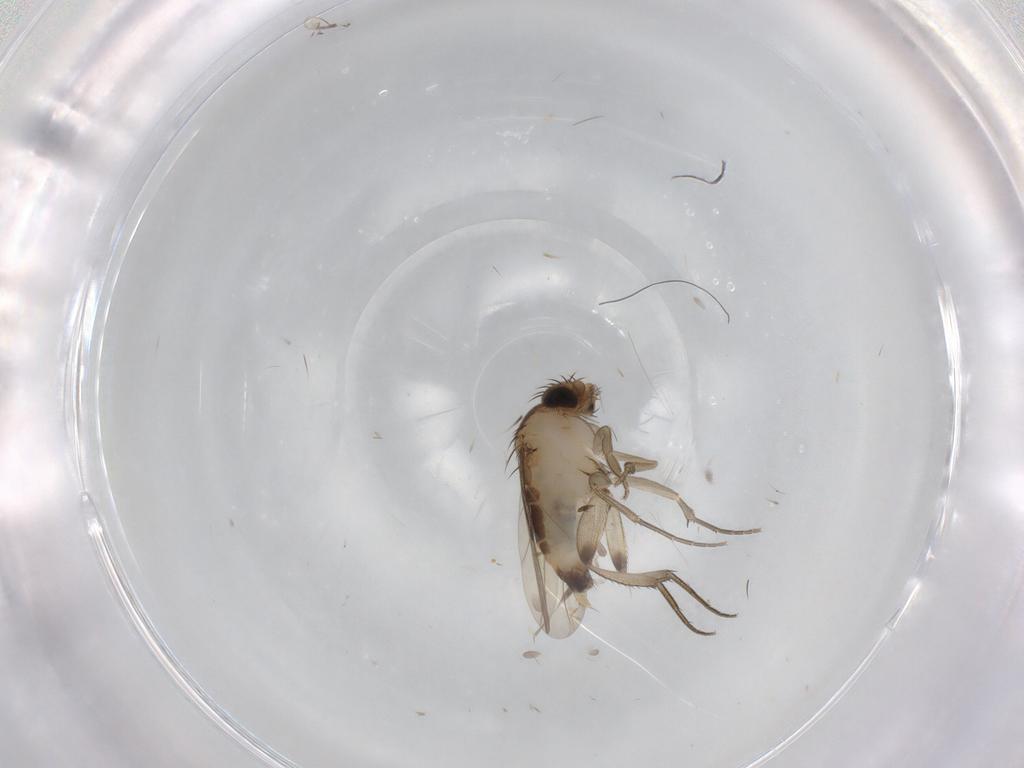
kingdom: Animalia
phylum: Arthropoda
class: Insecta
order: Diptera
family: Phoridae
